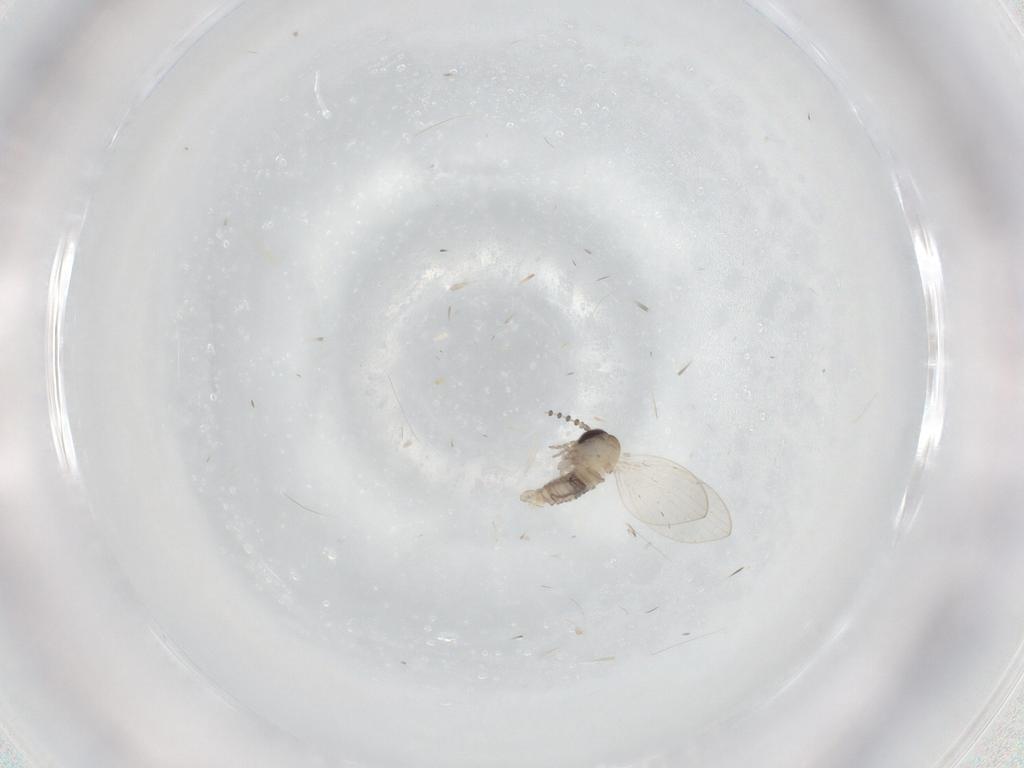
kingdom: Animalia
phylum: Arthropoda
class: Insecta
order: Diptera
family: Psychodidae
